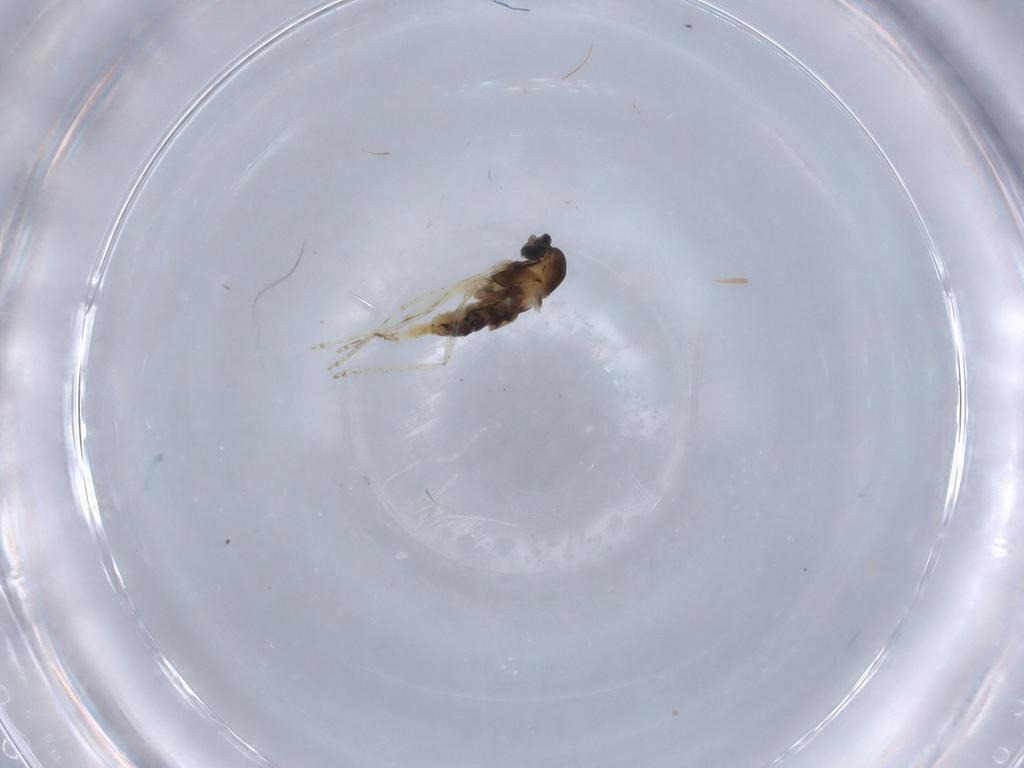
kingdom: Animalia
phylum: Arthropoda
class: Insecta
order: Diptera
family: Cecidomyiidae
